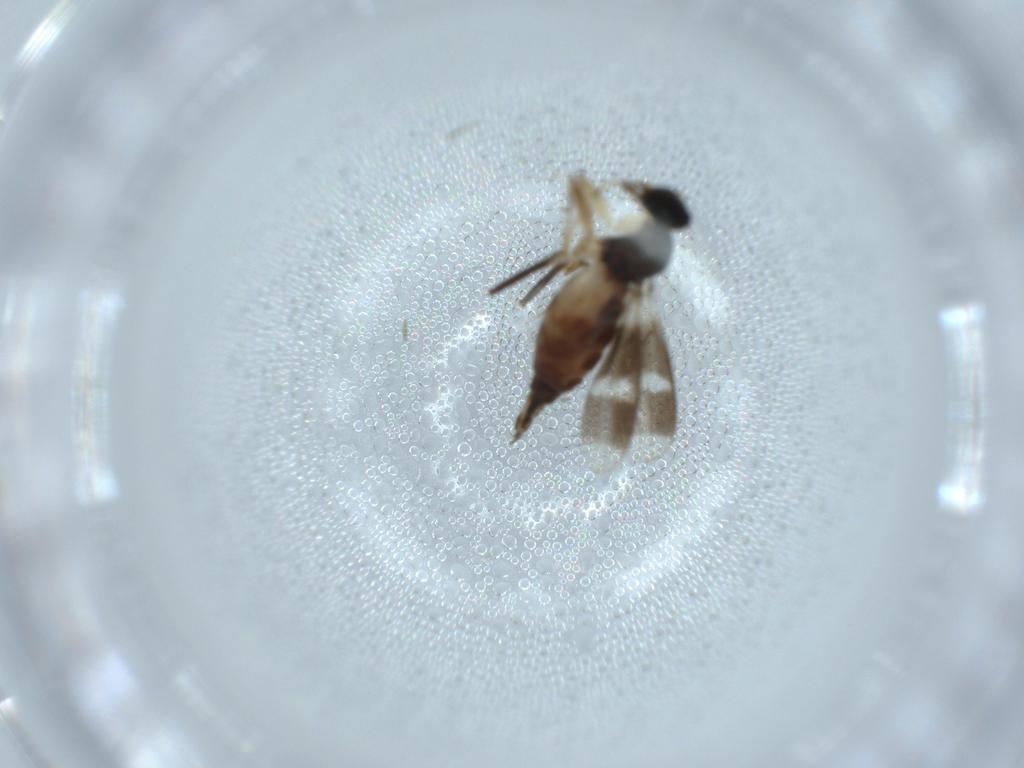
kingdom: Animalia
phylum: Arthropoda
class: Insecta
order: Diptera
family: Hybotidae
